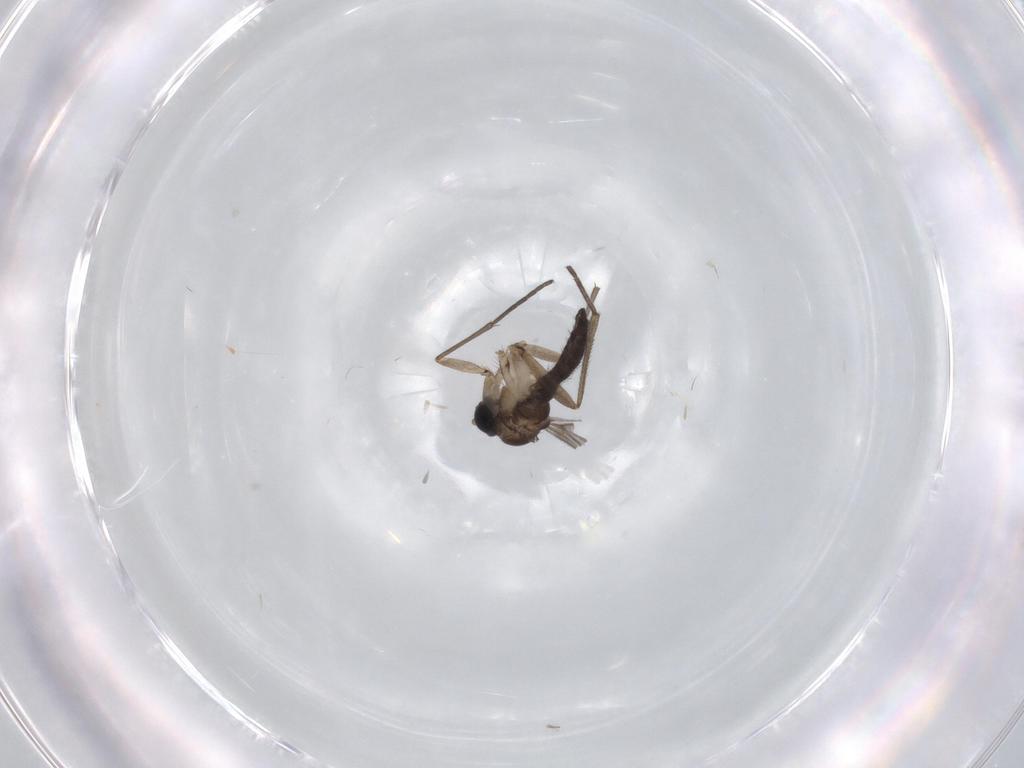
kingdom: Animalia
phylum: Arthropoda
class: Insecta
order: Diptera
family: Sciaridae
